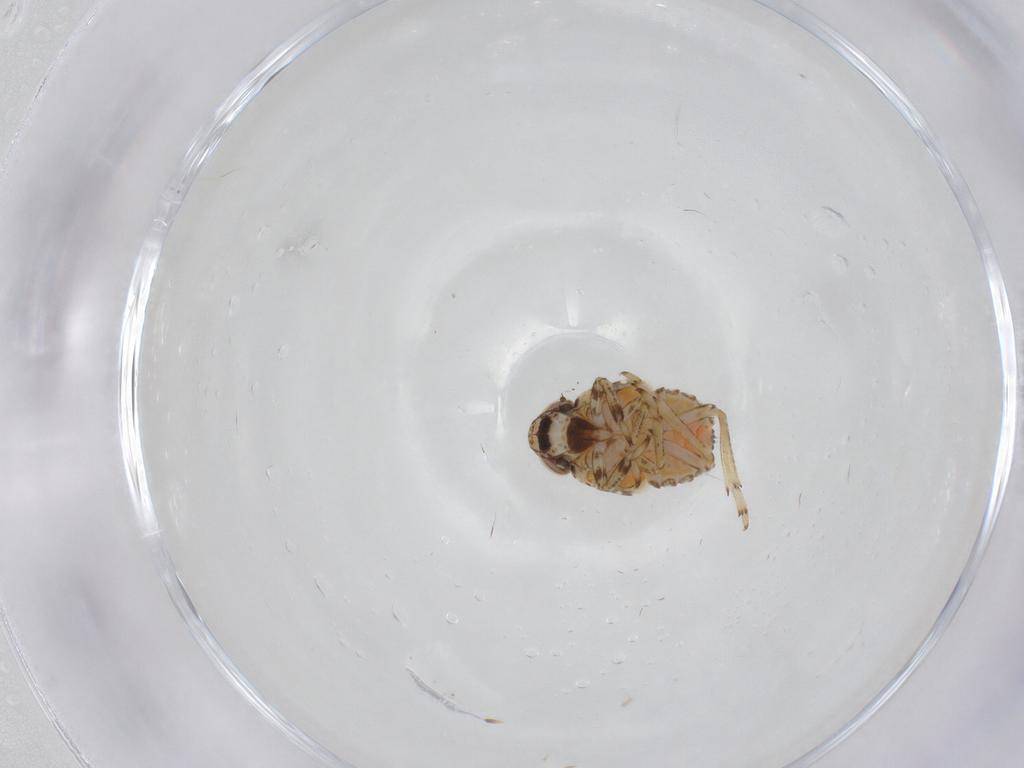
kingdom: Animalia
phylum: Arthropoda
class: Insecta
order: Hemiptera
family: Issidae
